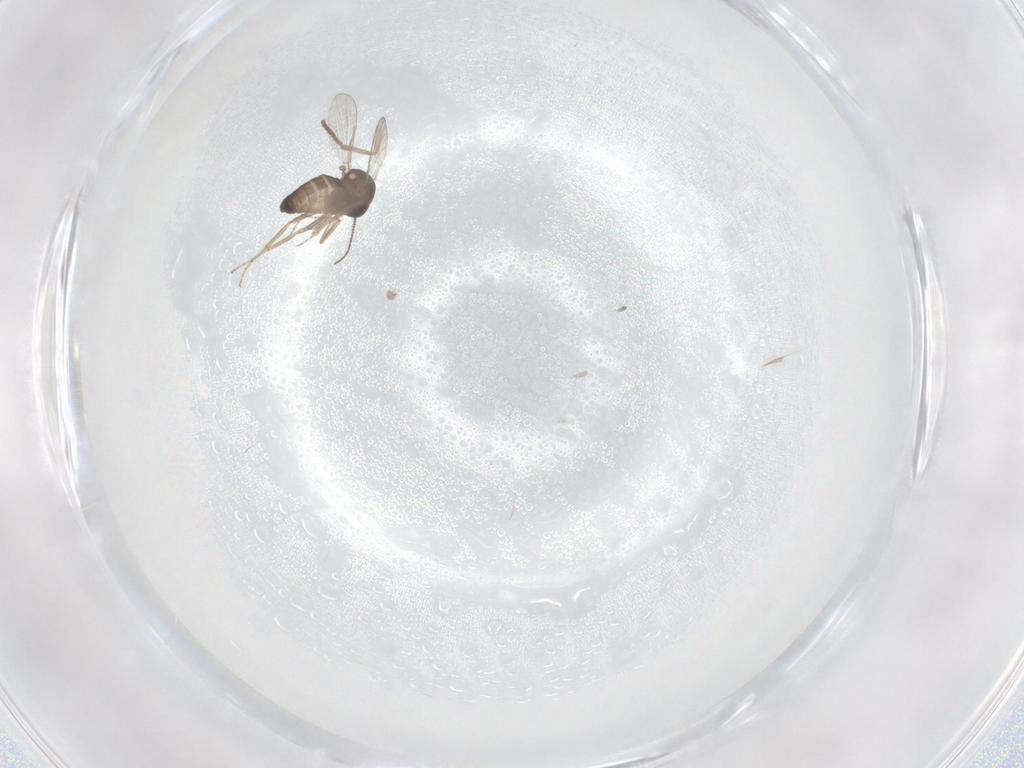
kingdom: Animalia
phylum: Arthropoda
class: Insecta
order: Diptera
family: Ceratopogonidae
